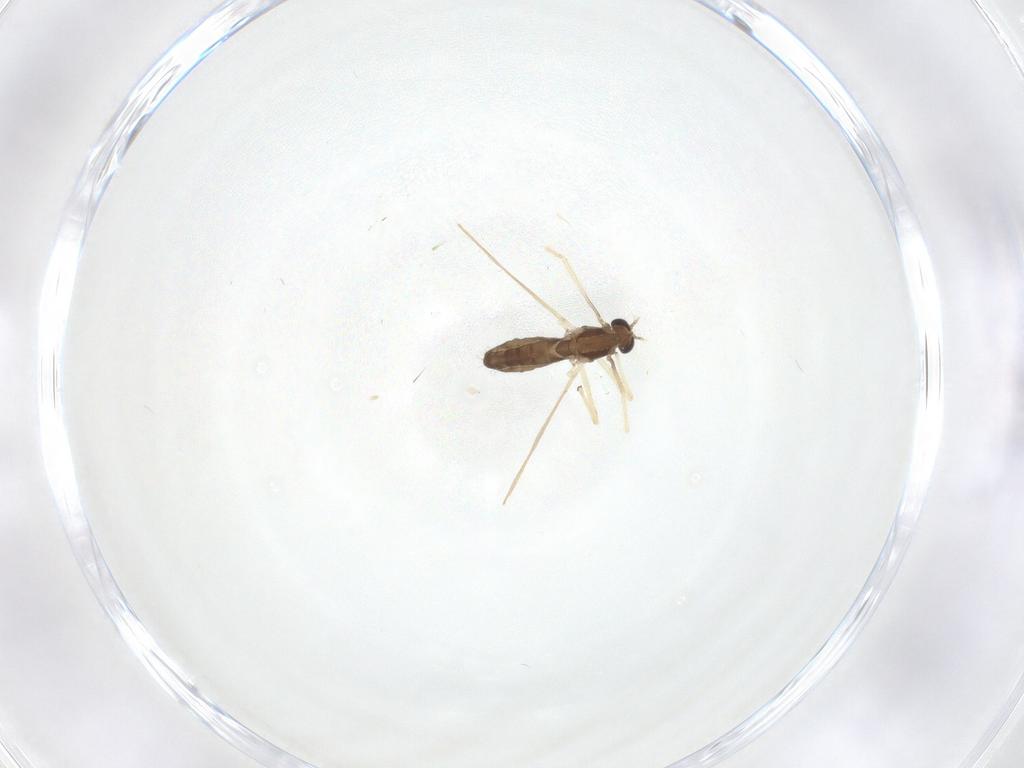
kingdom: Animalia
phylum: Arthropoda
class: Insecta
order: Diptera
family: Chironomidae
